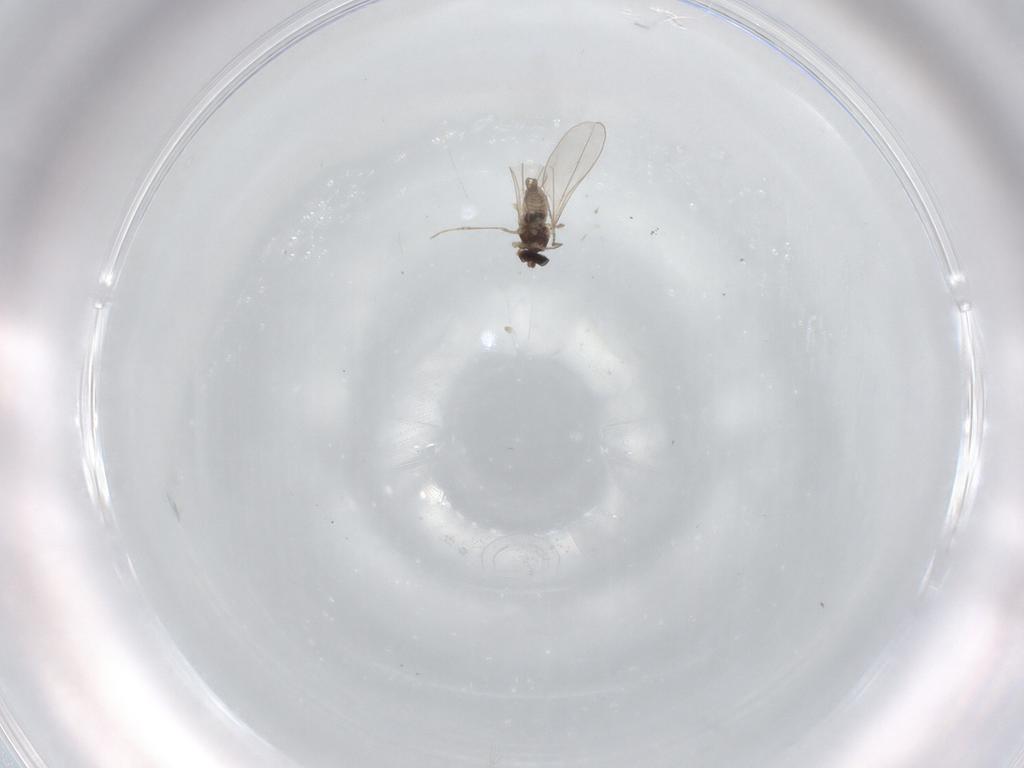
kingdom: Animalia
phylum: Arthropoda
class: Insecta
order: Diptera
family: Cecidomyiidae
